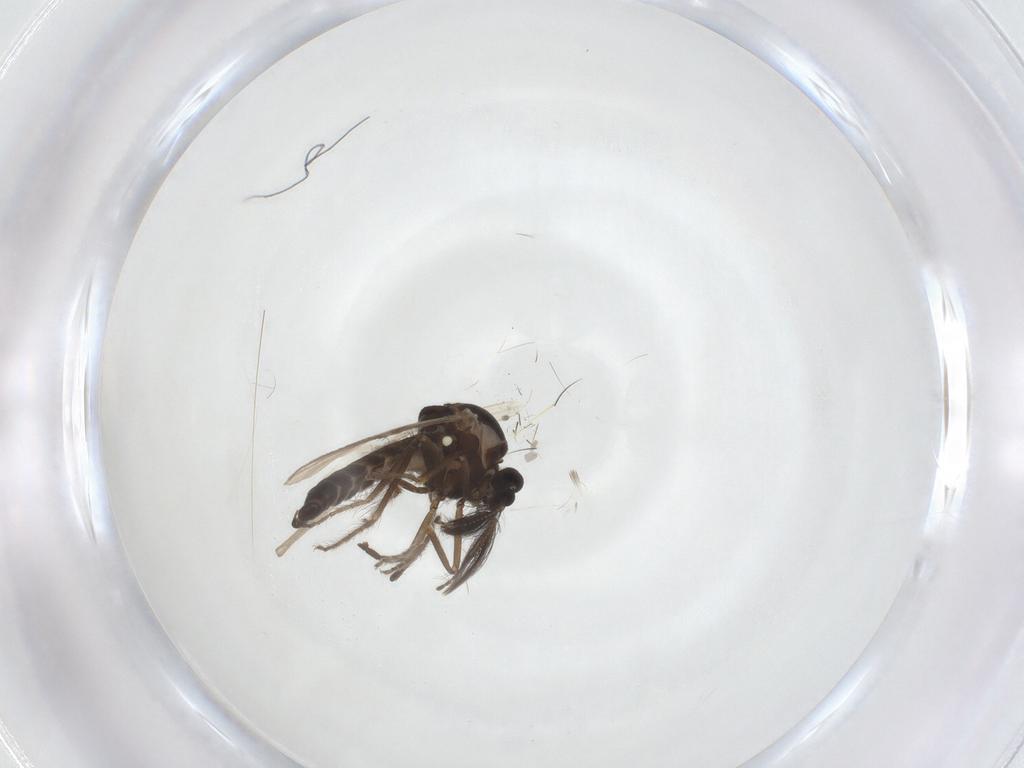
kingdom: Animalia
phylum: Arthropoda
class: Insecta
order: Diptera
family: Ceratopogonidae
